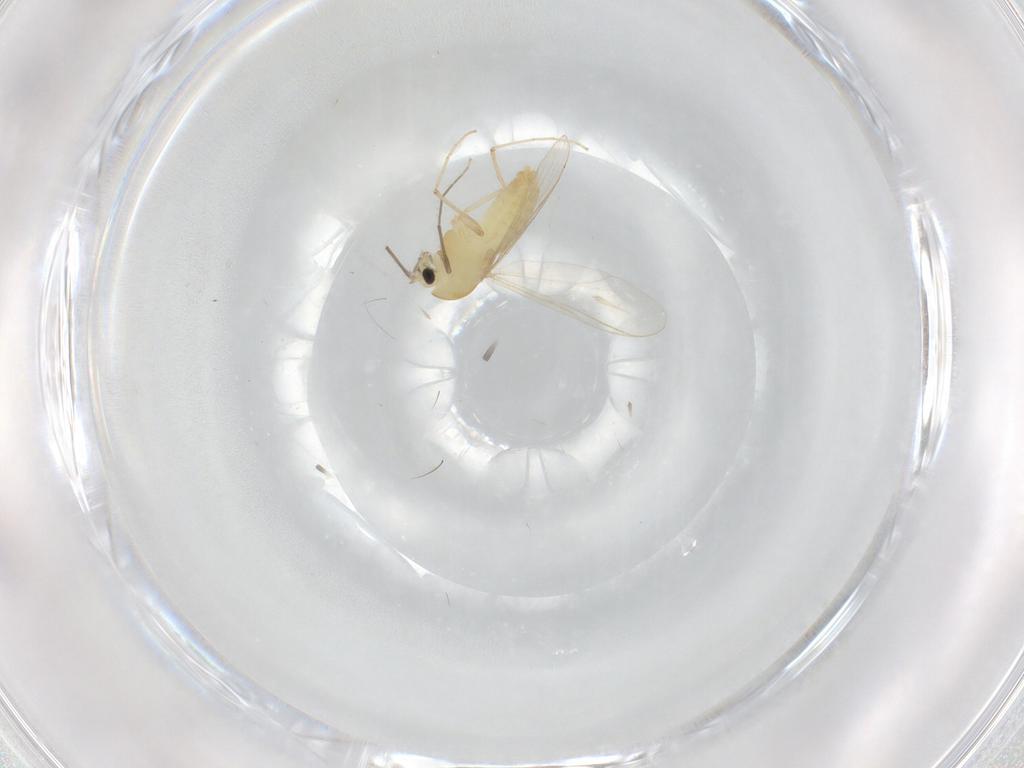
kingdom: Animalia
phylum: Arthropoda
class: Insecta
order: Diptera
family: Chironomidae
